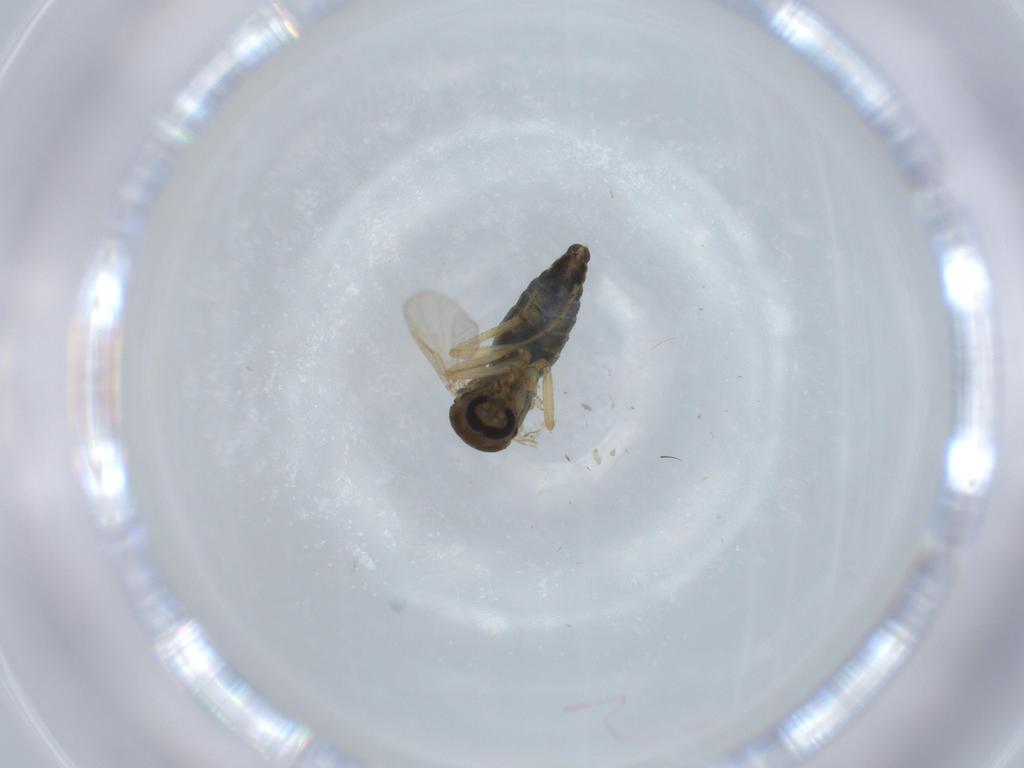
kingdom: Animalia
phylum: Arthropoda
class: Insecta
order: Diptera
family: Ceratopogonidae
